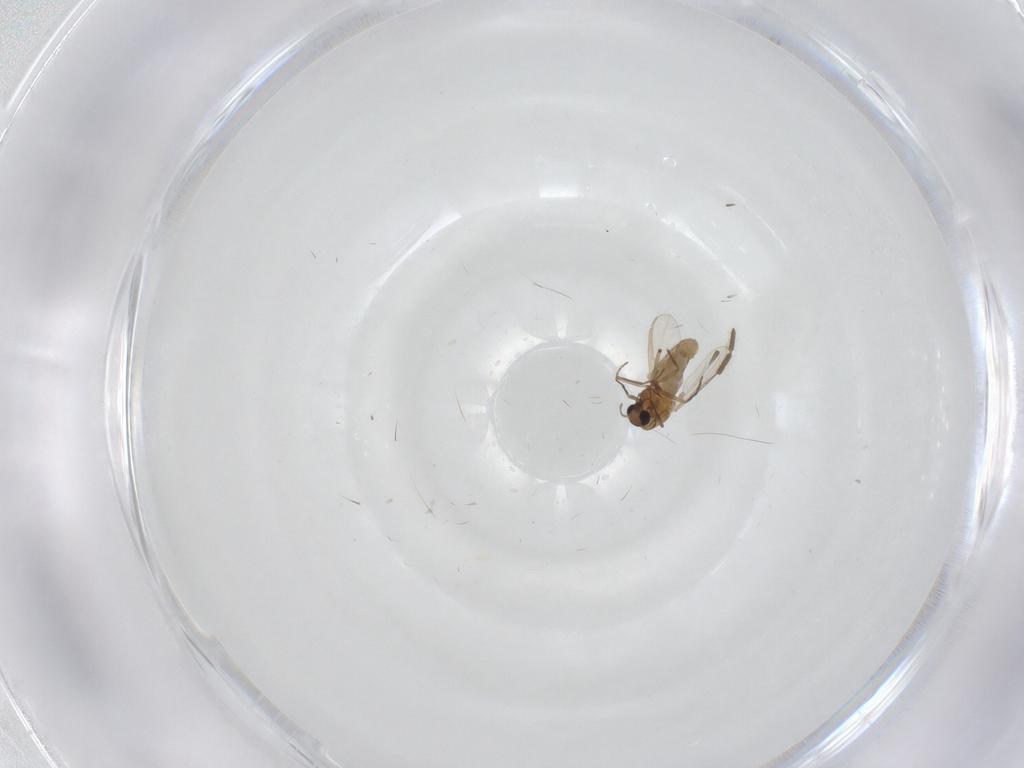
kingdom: Animalia
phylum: Arthropoda
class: Insecta
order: Diptera
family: Chironomidae
